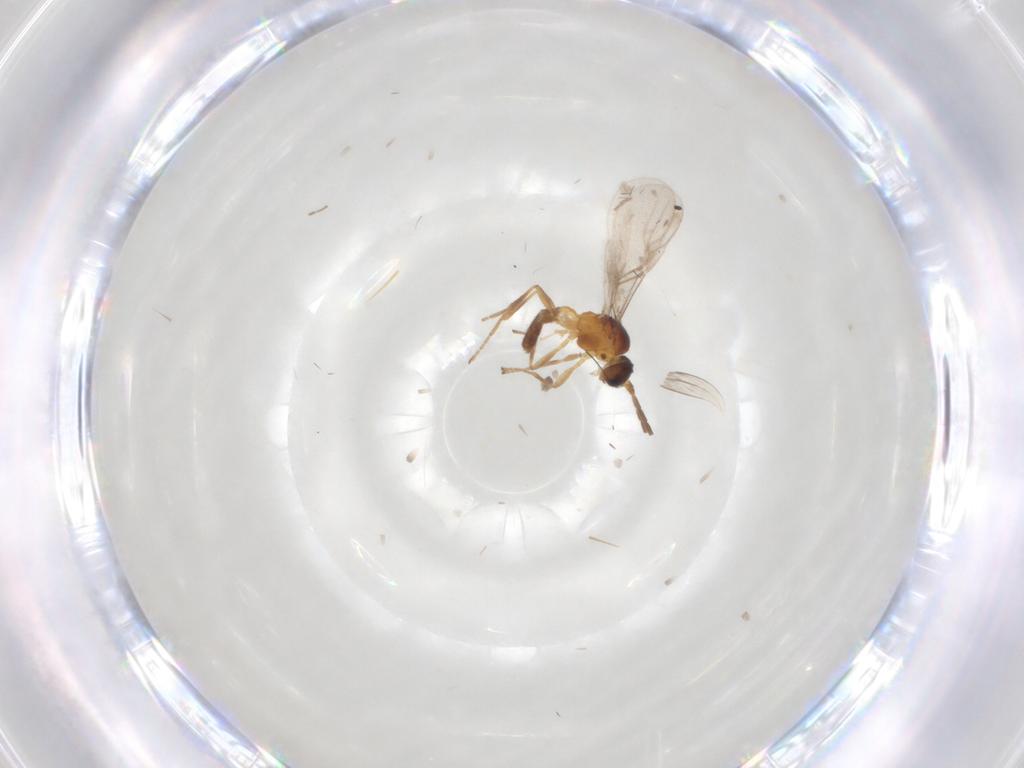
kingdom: Animalia
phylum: Arthropoda
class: Insecta
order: Hymenoptera
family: Braconidae
